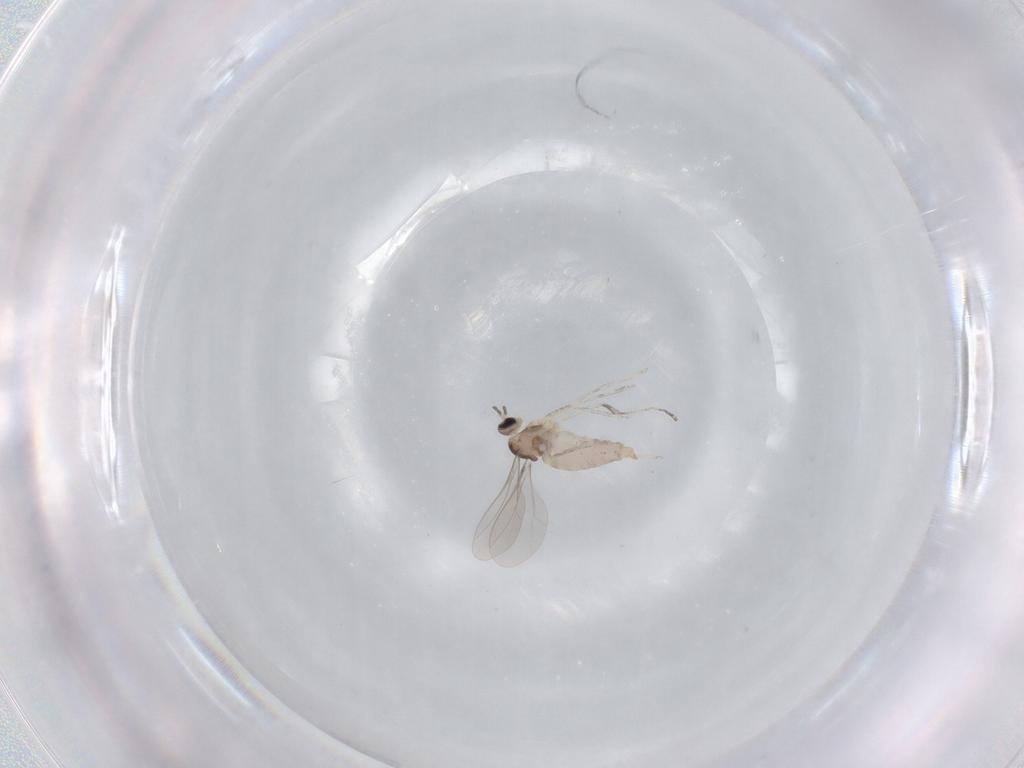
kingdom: Animalia
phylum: Arthropoda
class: Insecta
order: Diptera
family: Cecidomyiidae
